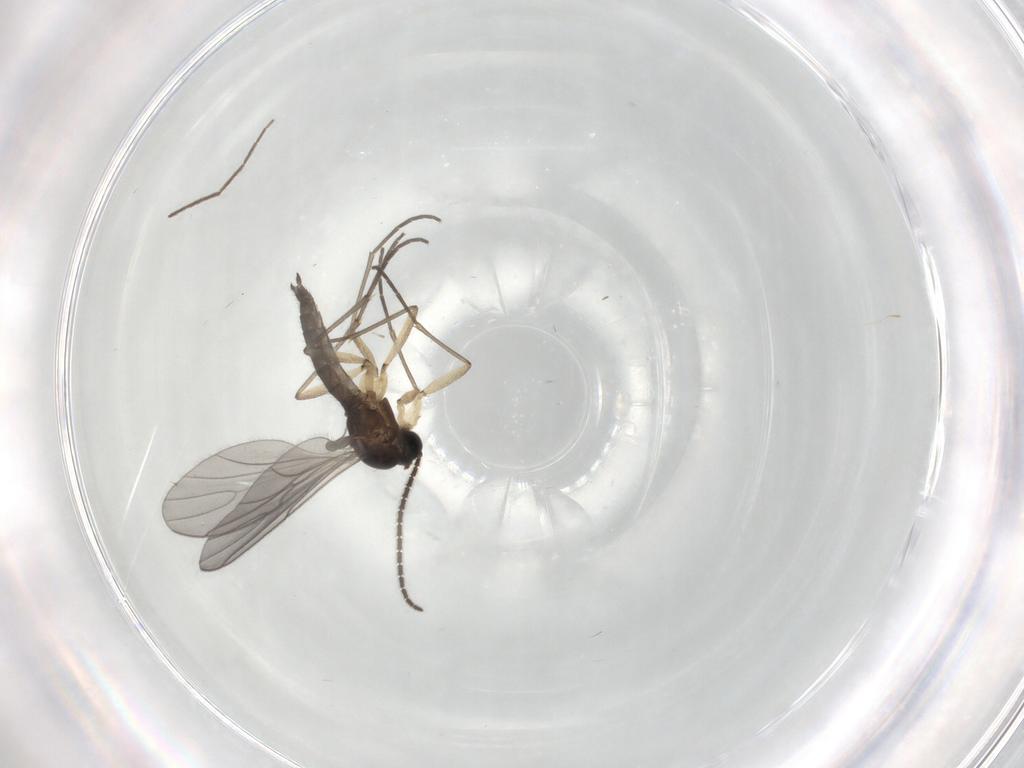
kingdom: Animalia
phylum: Arthropoda
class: Insecta
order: Diptera
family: Sciaridae
